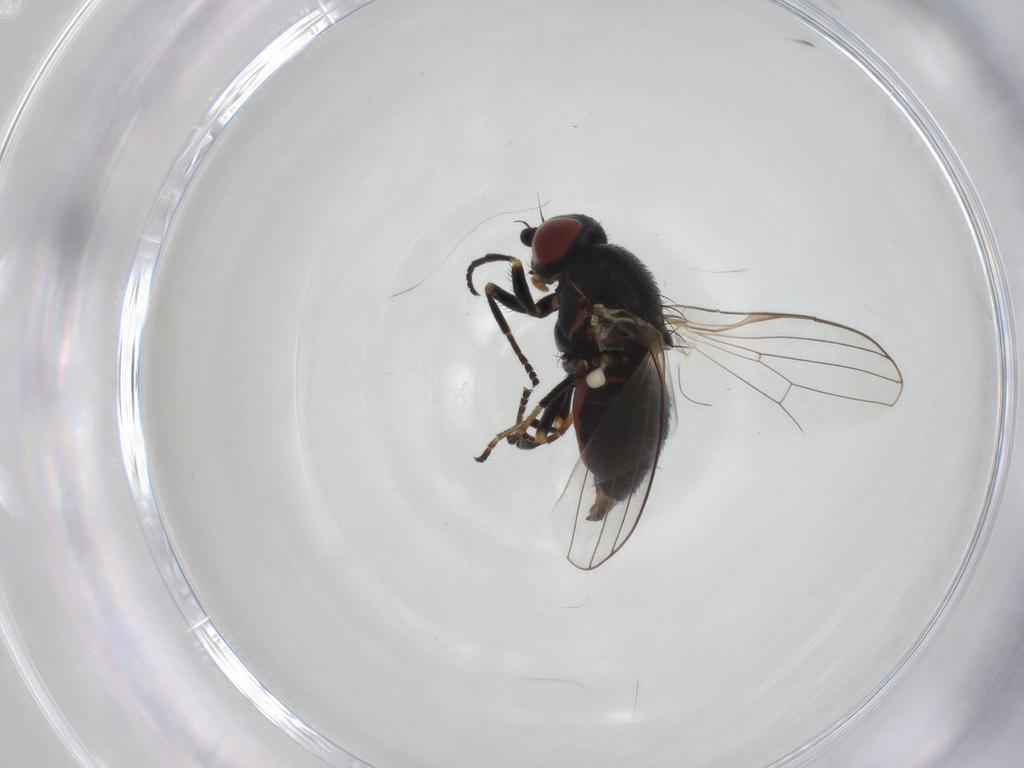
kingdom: Animalia
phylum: Arthropoda
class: Insecta
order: Diptera
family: Chamaemyiidae
